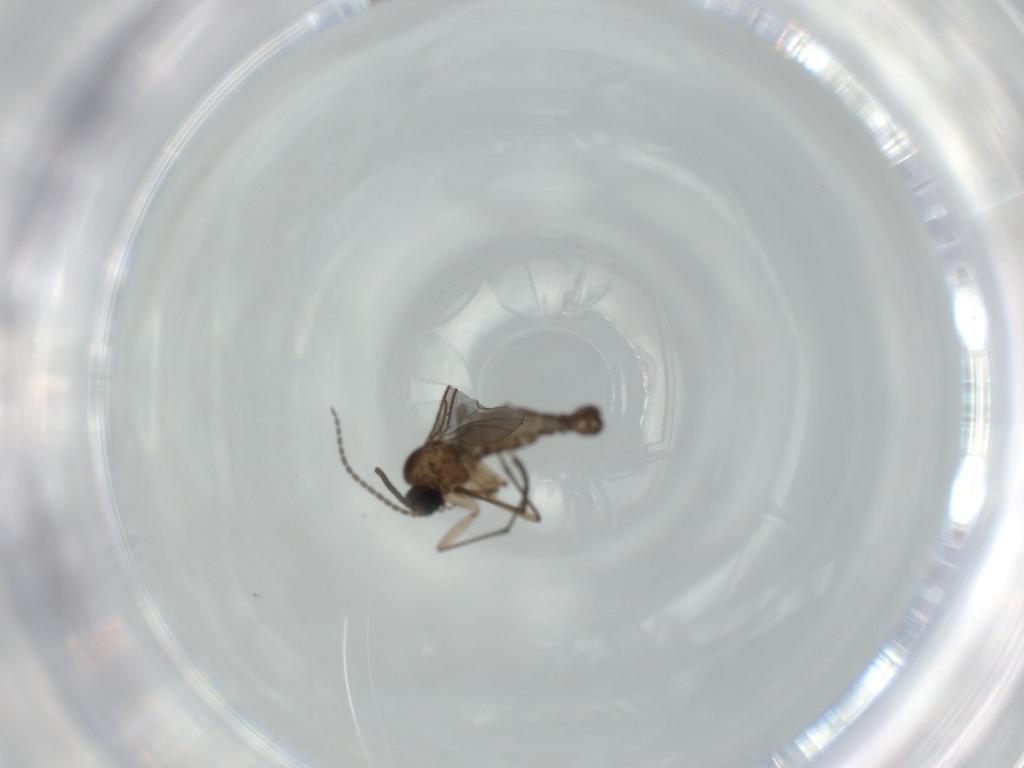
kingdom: Animalia
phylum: Arthropoda
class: Insecta
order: Diptera
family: Sciaridae
